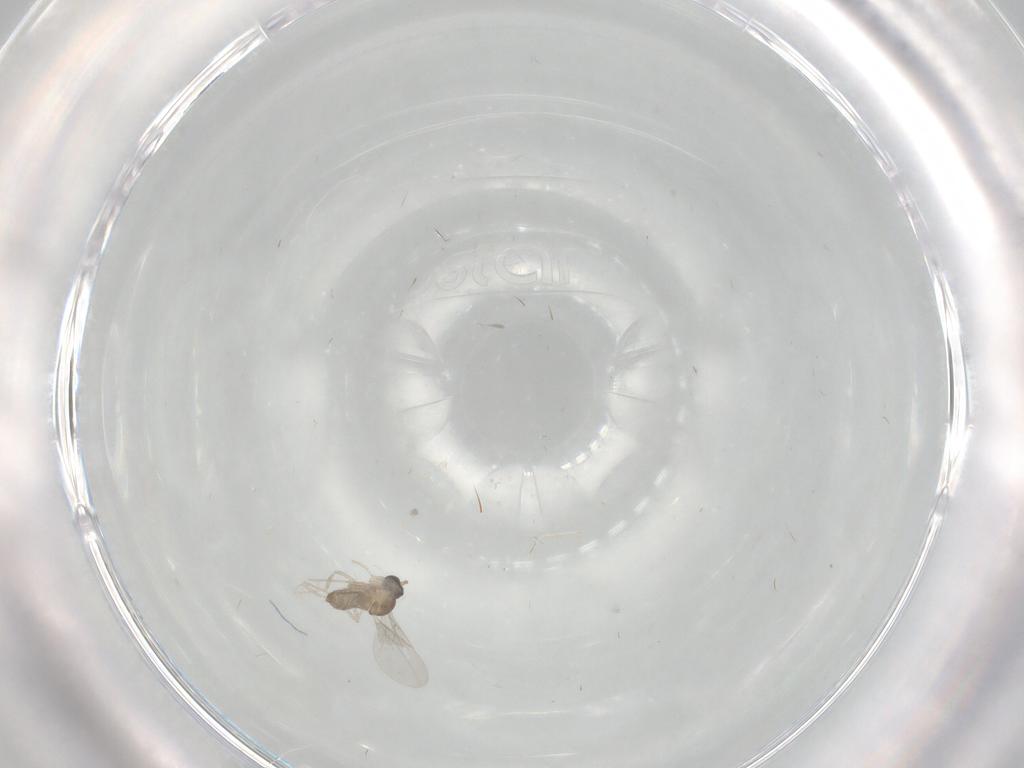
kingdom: Animalia
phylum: Arthropoda
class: Insecta
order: Diptera
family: Cecidomyiidae
